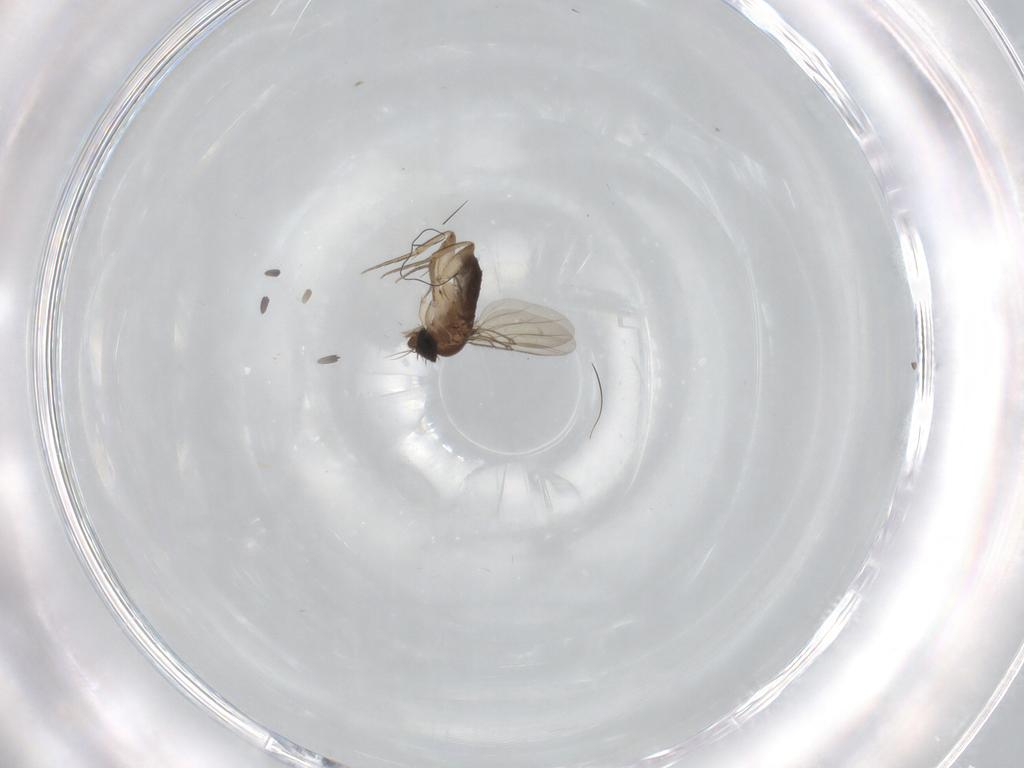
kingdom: Animalia
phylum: Arthropoda
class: Insecta
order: Diptera
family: Phoridae
